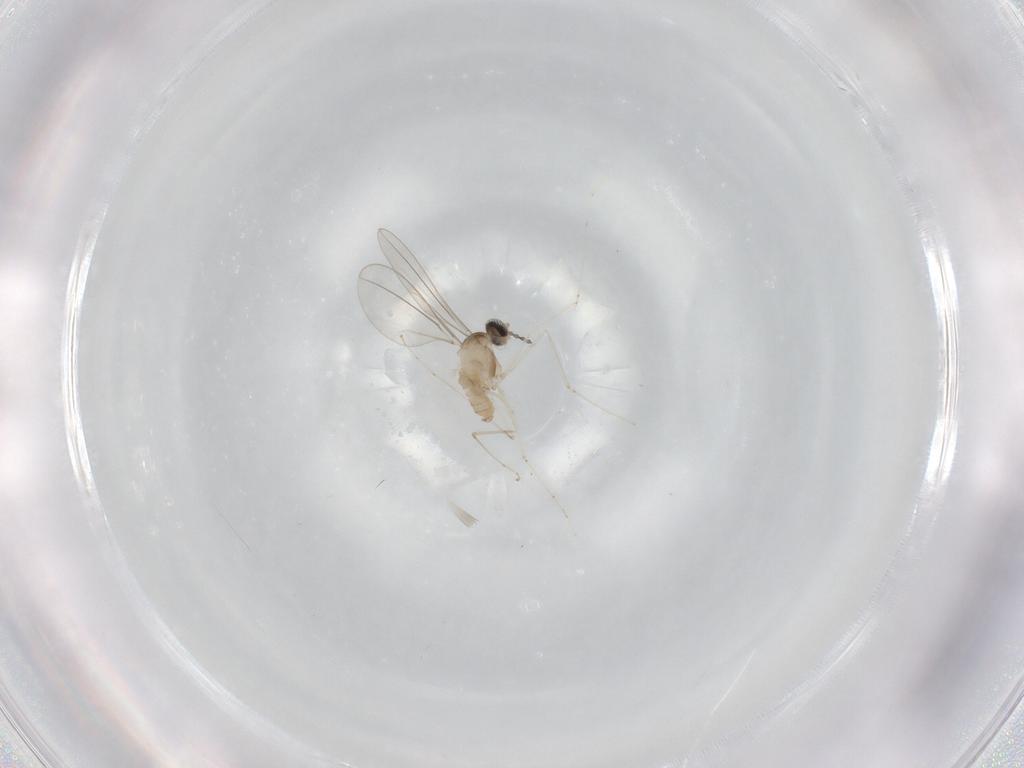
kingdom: Animalia
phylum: Arthropoda
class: Insecta
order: Diptera
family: Cecidomyiidae
